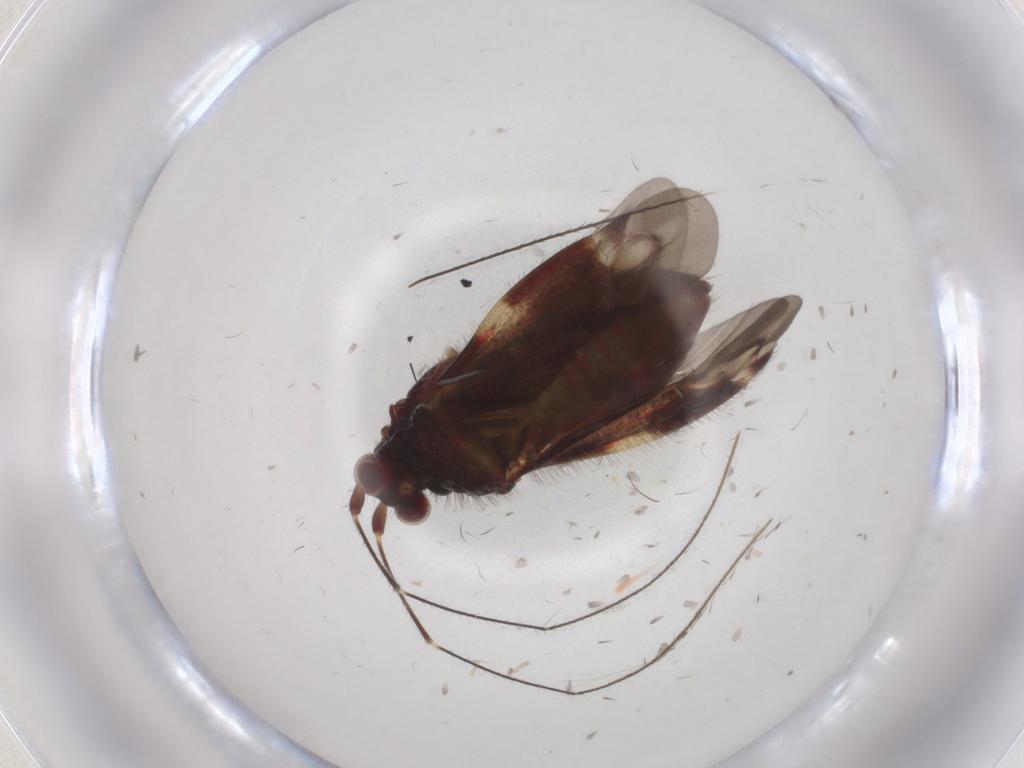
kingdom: Animalia
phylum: Arthropoda
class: Insecta
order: Hemiptera
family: Miridae
